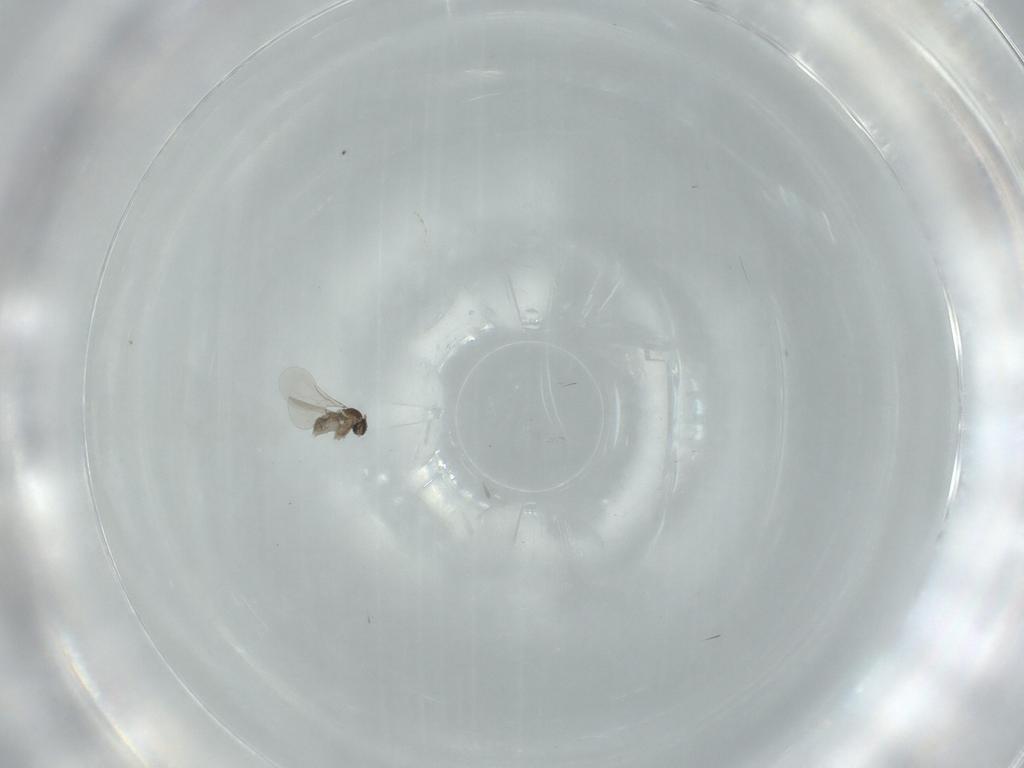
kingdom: Animalia
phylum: Arthropoda
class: Insecta
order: Diptera
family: Cecidomyiidae
